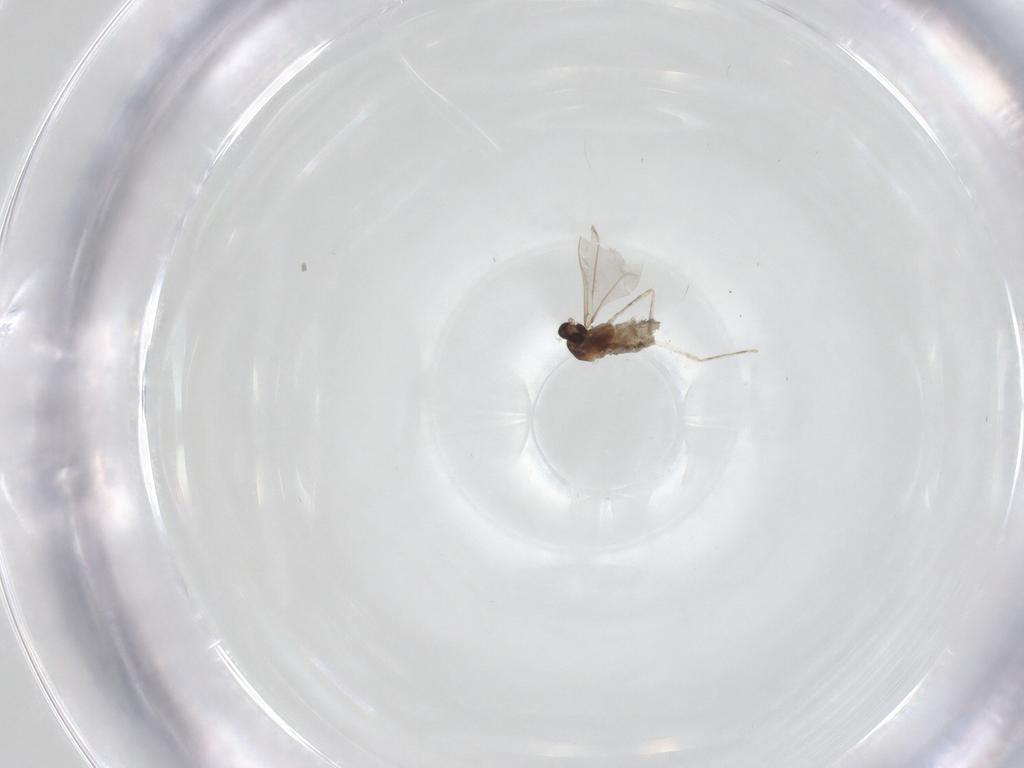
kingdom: Animalia
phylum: Arthropoda
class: Insecta
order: Diptera
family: Cecidomyiidae
